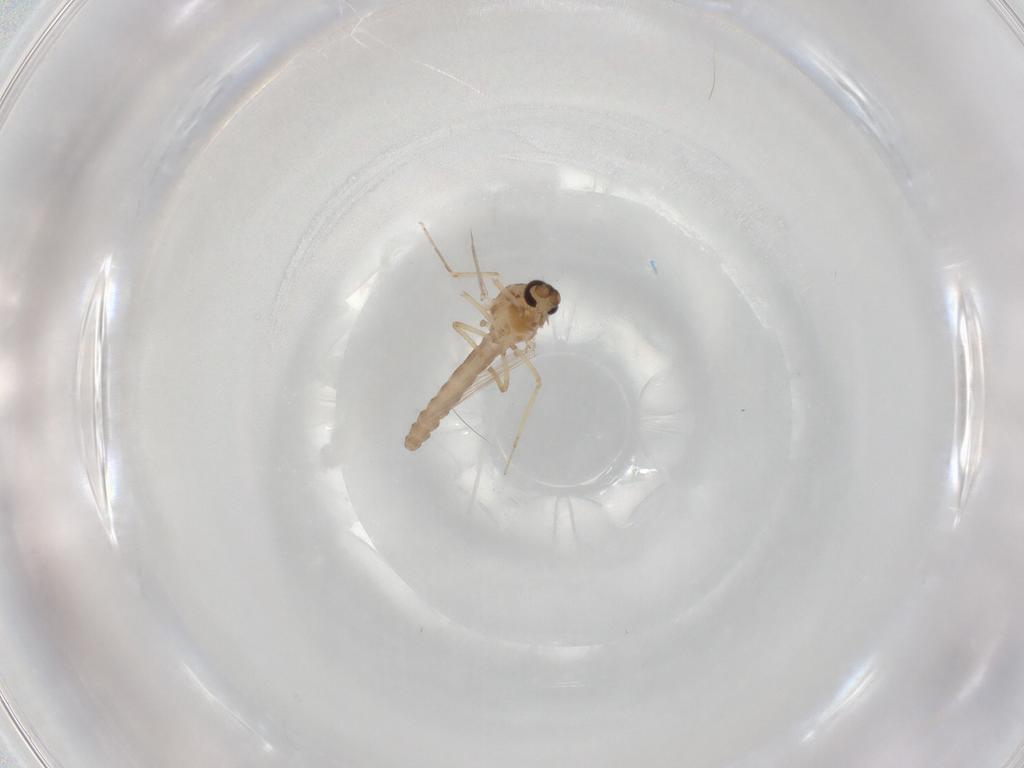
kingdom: Animalia
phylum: Arthropoda
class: Insecta
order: Diptera
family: Ceratopogonidae
